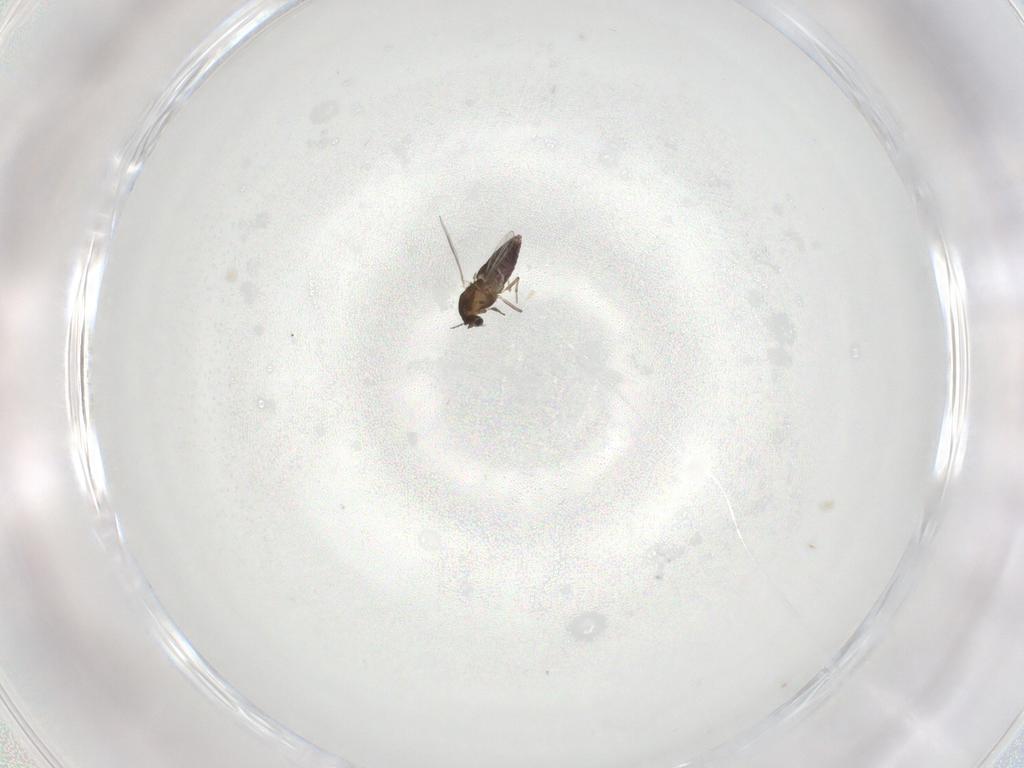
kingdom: Animalia
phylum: Arthropoda
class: Insecta
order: Diptera
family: Chironomidae
